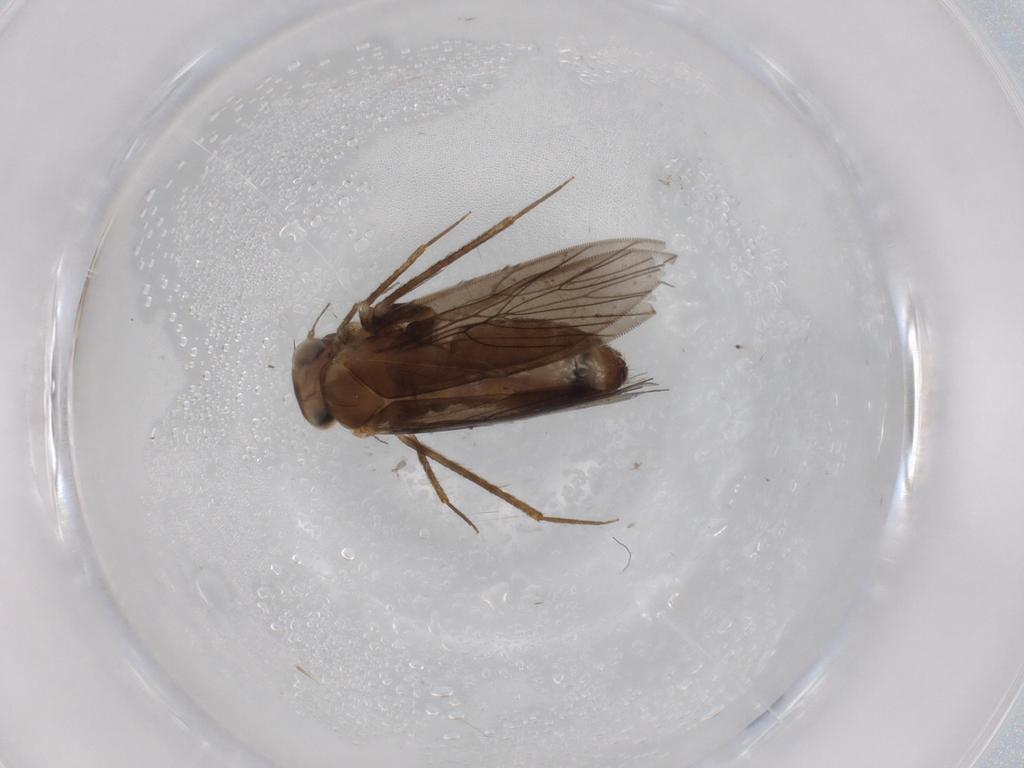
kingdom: Animalia
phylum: Arthropoda
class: Insecta
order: Psocodea
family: Lepidopsocidae
